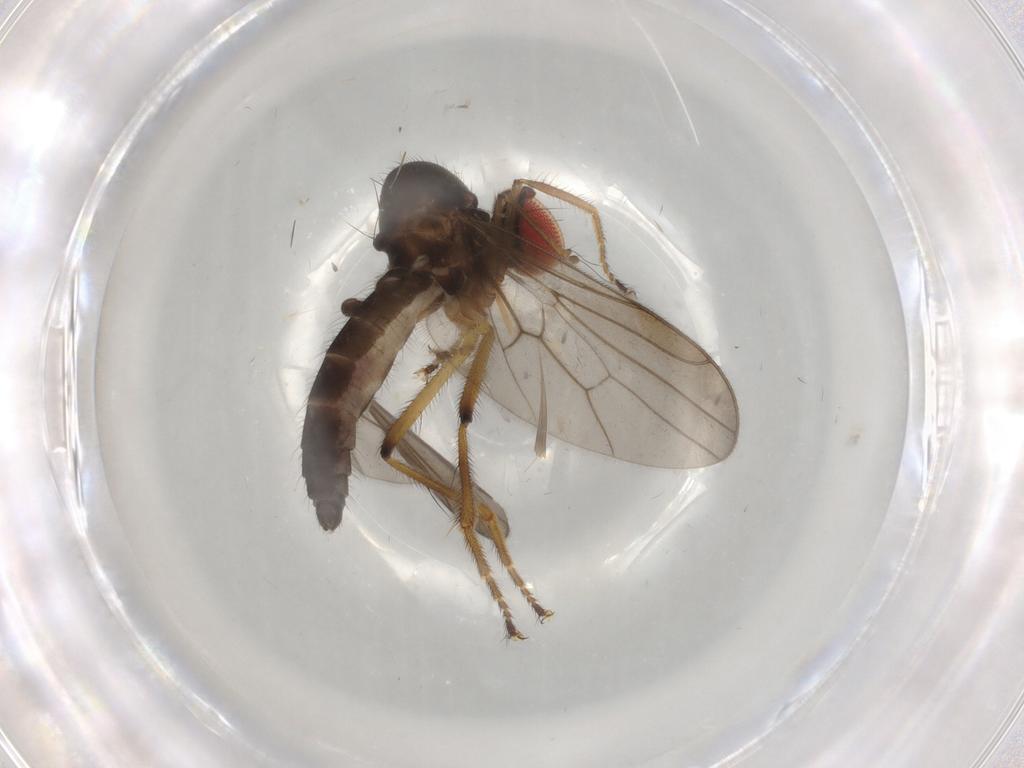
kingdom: Animalia
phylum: Arthropoda
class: Insecta
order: Diptera
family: Hybotidae
